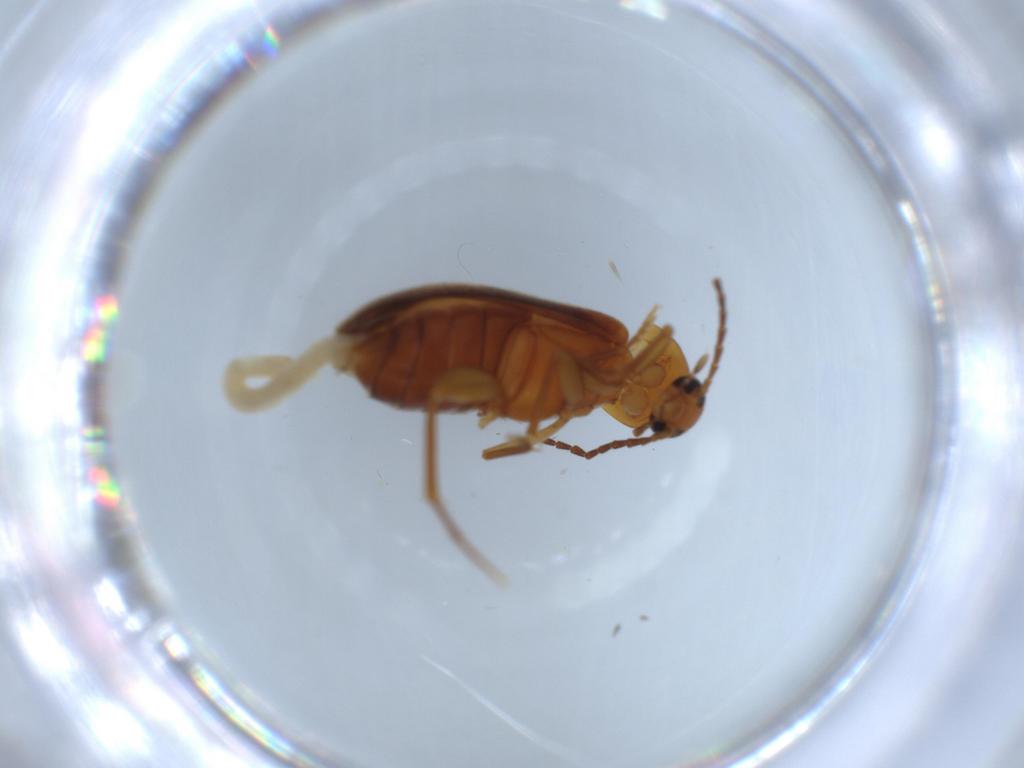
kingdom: Animalia
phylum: Arthropoda
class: Insecta
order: Coleoptera
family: Scraptiidae
